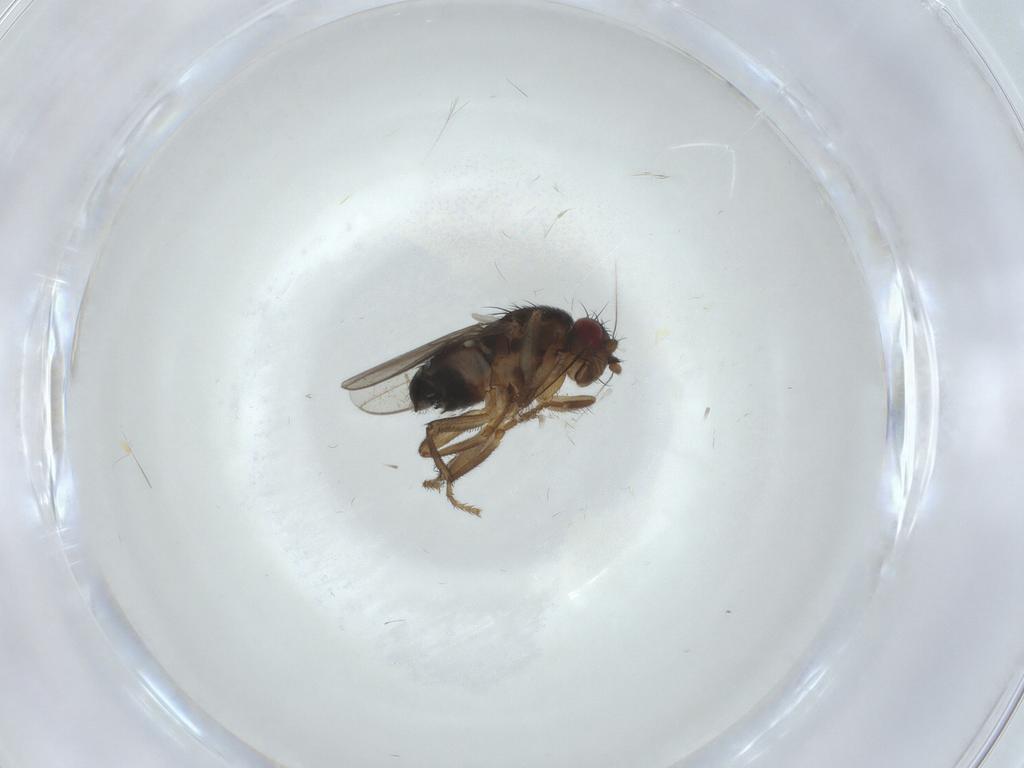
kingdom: Animalia
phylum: Arthropoda
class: Insecta
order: Diptera
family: Sphaeroceridae
